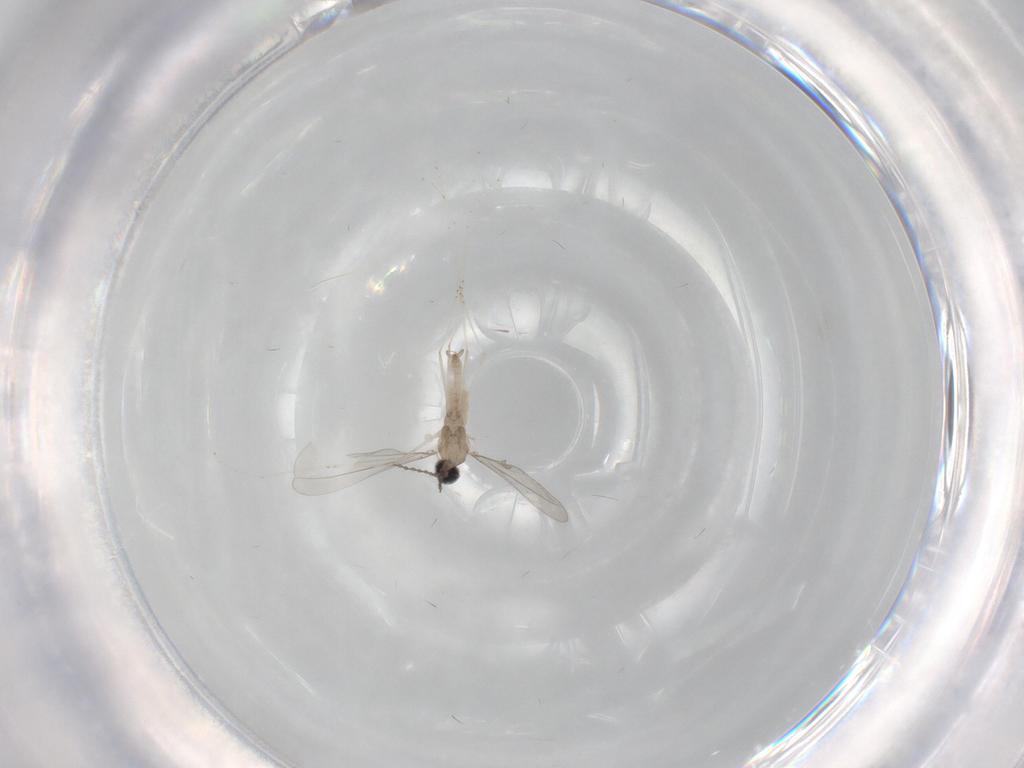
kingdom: Animalia
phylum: Arthropoda
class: Insecta
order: Diptera
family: Cecidomyiidae
